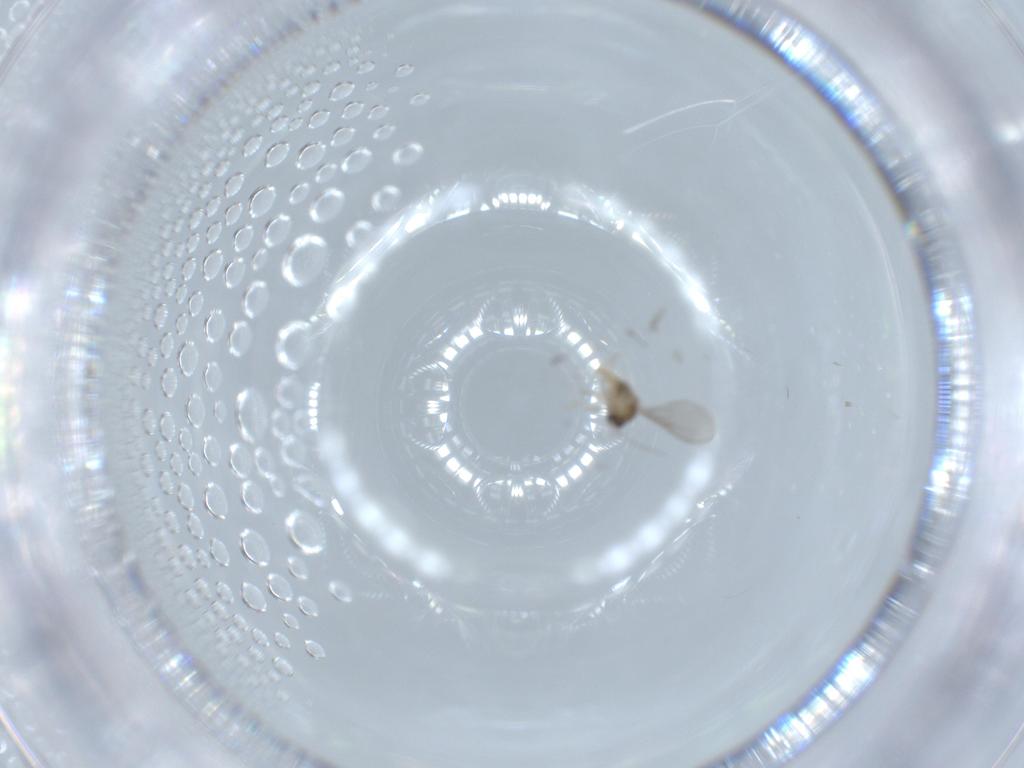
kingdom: Animalia
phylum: Arthropoda
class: Insecta
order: Diptera
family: Cecidomyiidae
